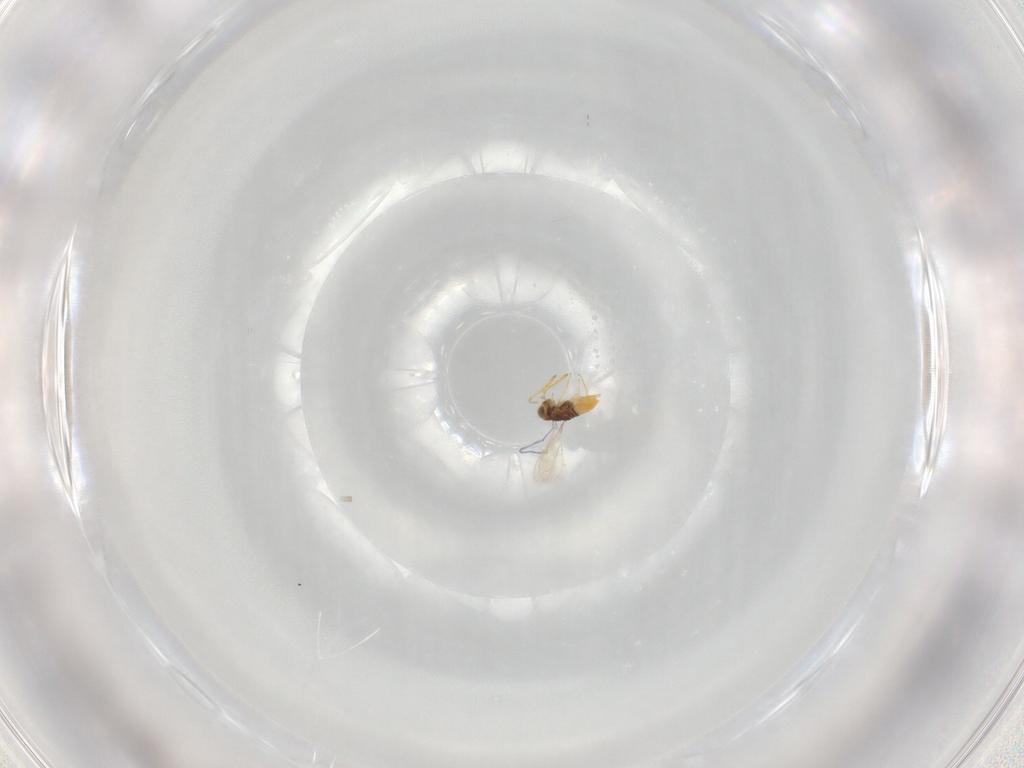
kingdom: Animalia
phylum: Arthropoda
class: Insecta
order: Hymenoptera
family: Aphelinidae
